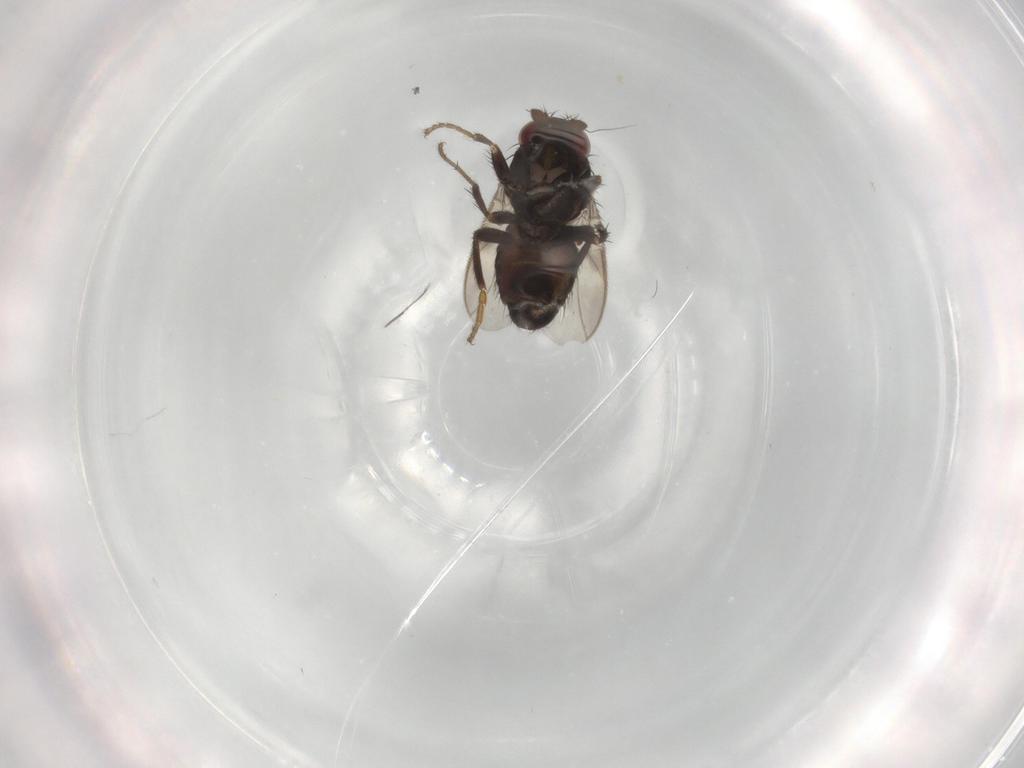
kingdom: Animalia
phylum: Arthropoda
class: Insecta
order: Diptera
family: Sphaeroceridae
